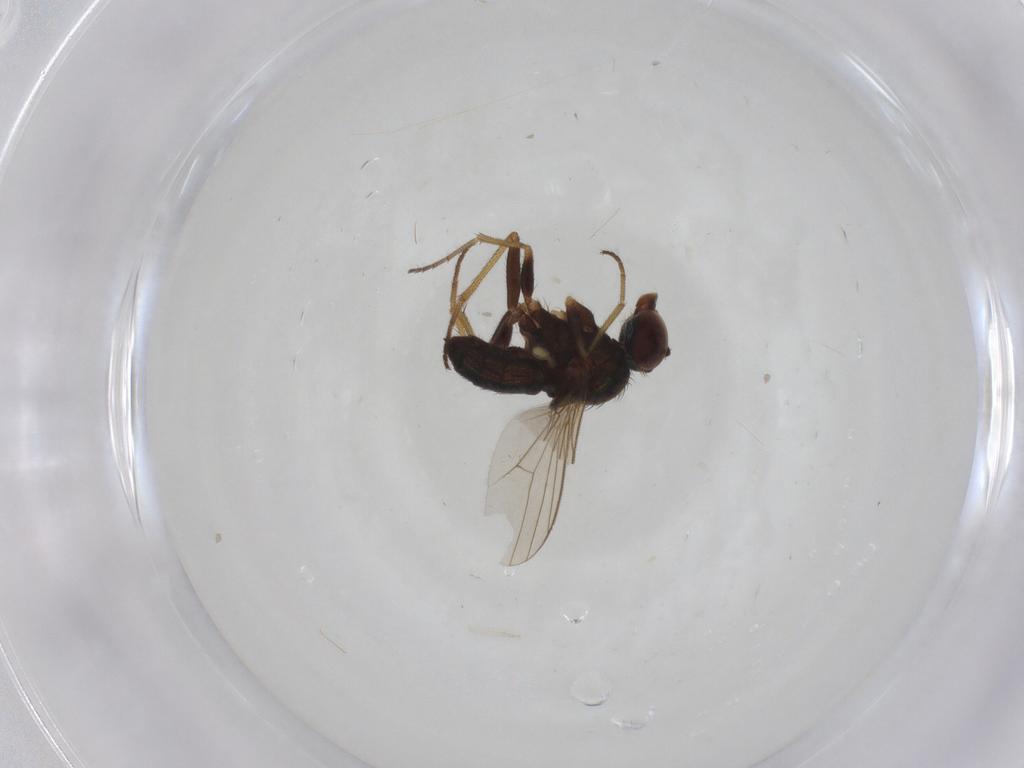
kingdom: Animalia
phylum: Arthropoda
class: Insecta
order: Diptera
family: Dolichopodidae
